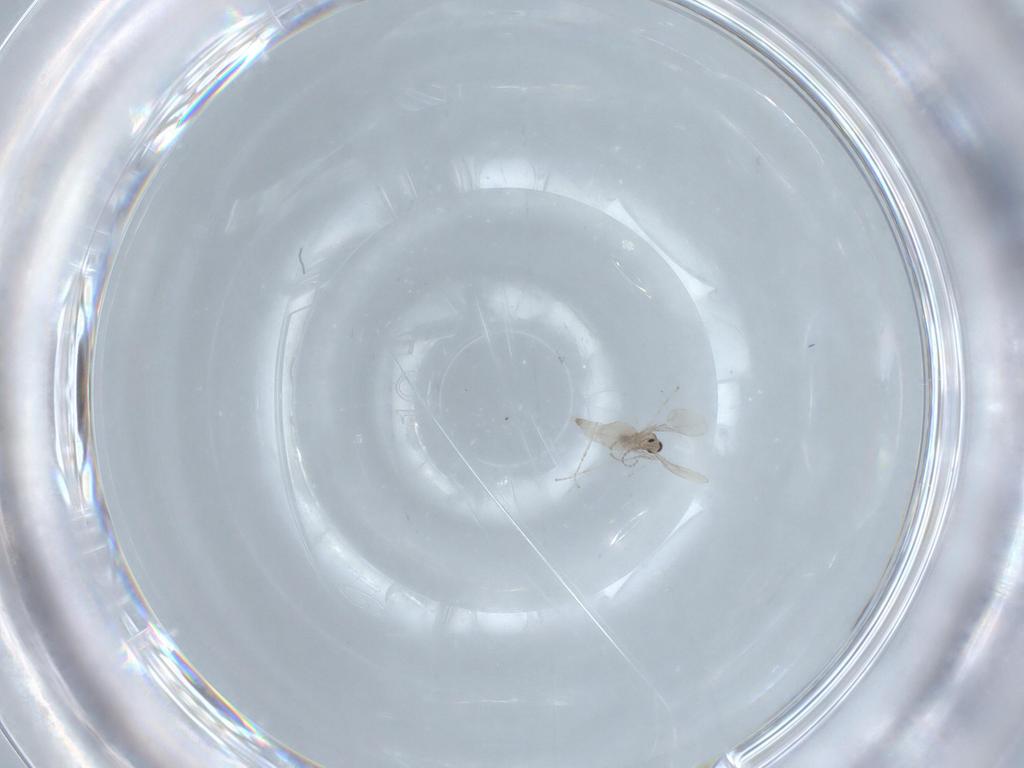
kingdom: Animalia
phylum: Arthropoda
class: Insecta
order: Diptera
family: Cecidomyiidae
